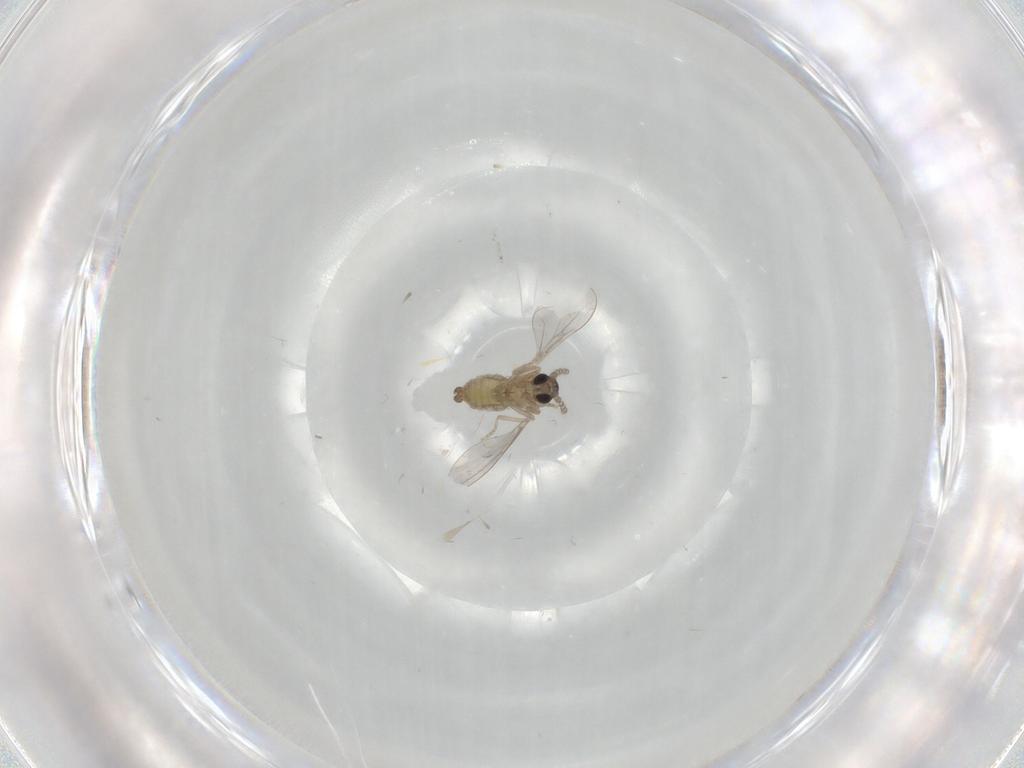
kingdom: Animalia
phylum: Arthropoda
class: Insecta
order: Diptera
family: Cecidomyiidae
